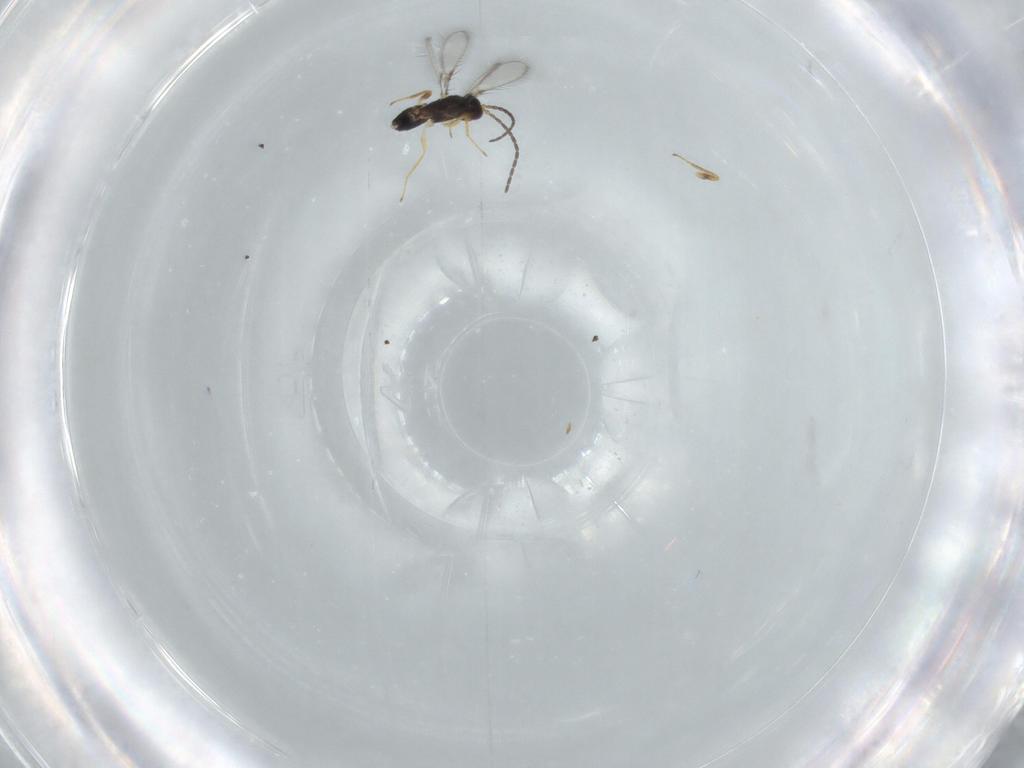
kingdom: Animalia
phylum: Arthropoda
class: Insecta
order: Hymenoptera
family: Mymaridae
